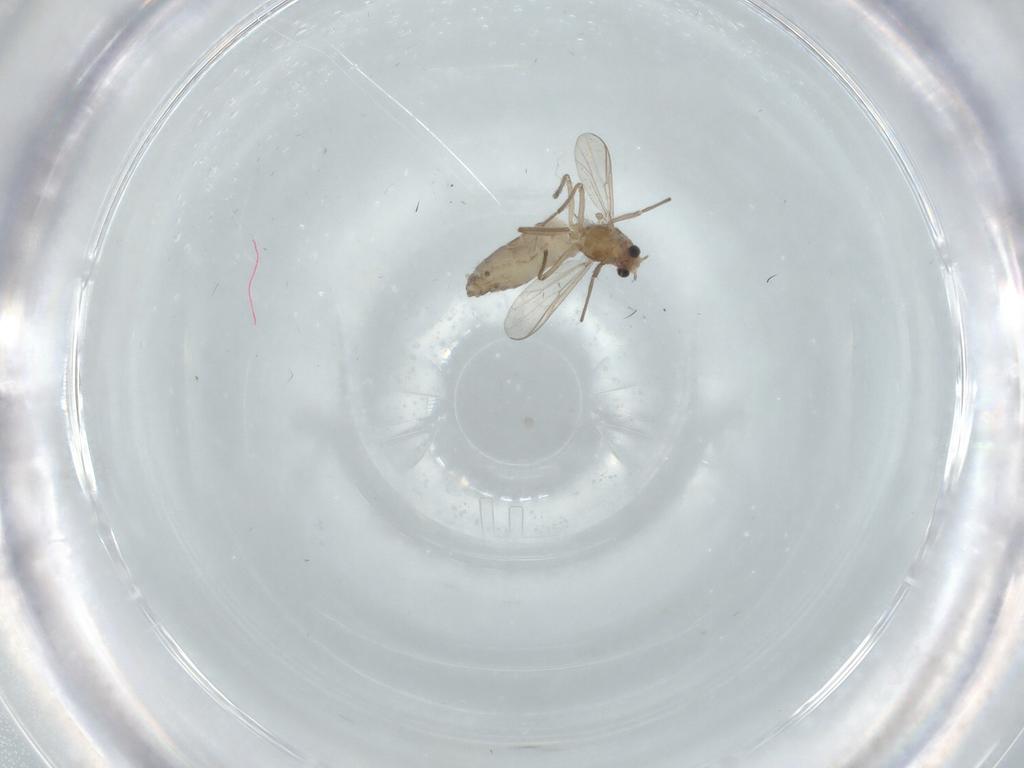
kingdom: Animalia
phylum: Arthropoda
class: Insecta
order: Diptera
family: Chironomidae
